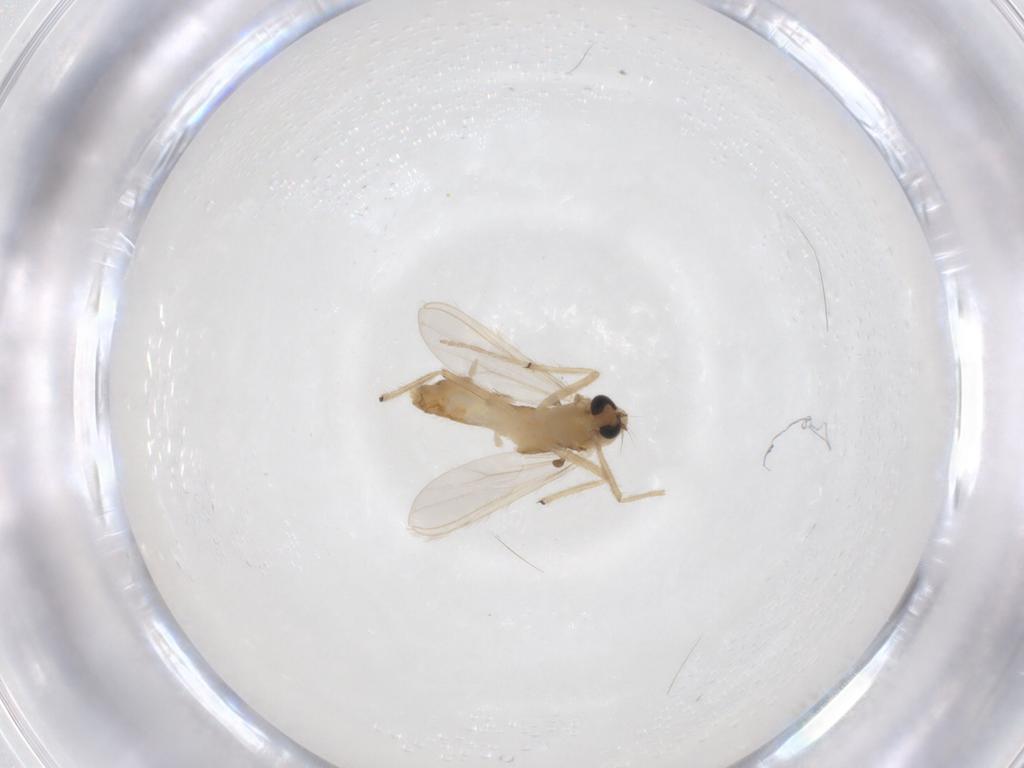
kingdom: Animalia
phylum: Arthropoda
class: Insecta
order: Diptera
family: Chironomidae
